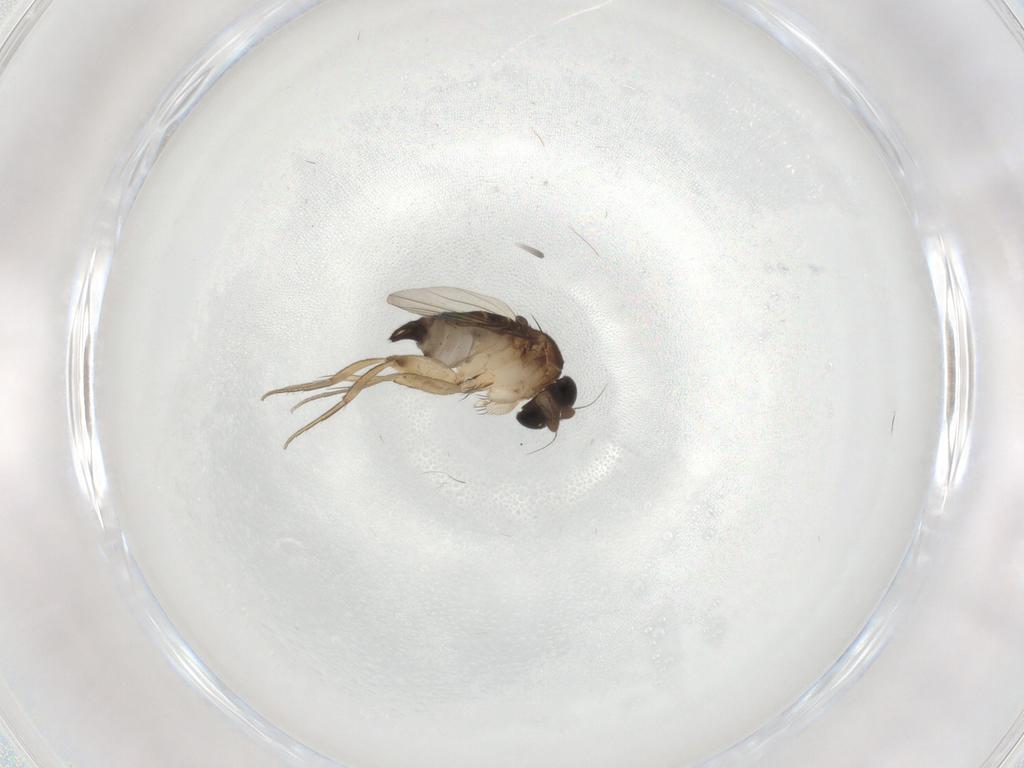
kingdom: Animalia
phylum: Arthropoda
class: Insecta
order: Diptera
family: Phoridae
